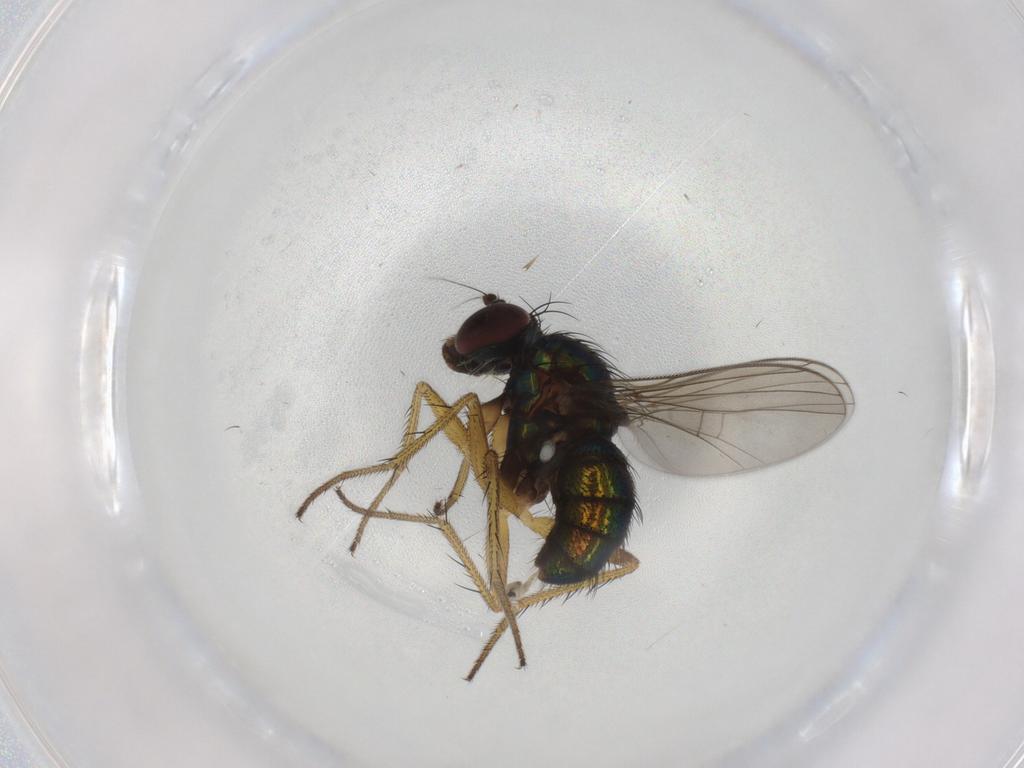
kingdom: Animalia
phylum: Arthropoda
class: Insecta
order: Diptera
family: Dolichopodidae
